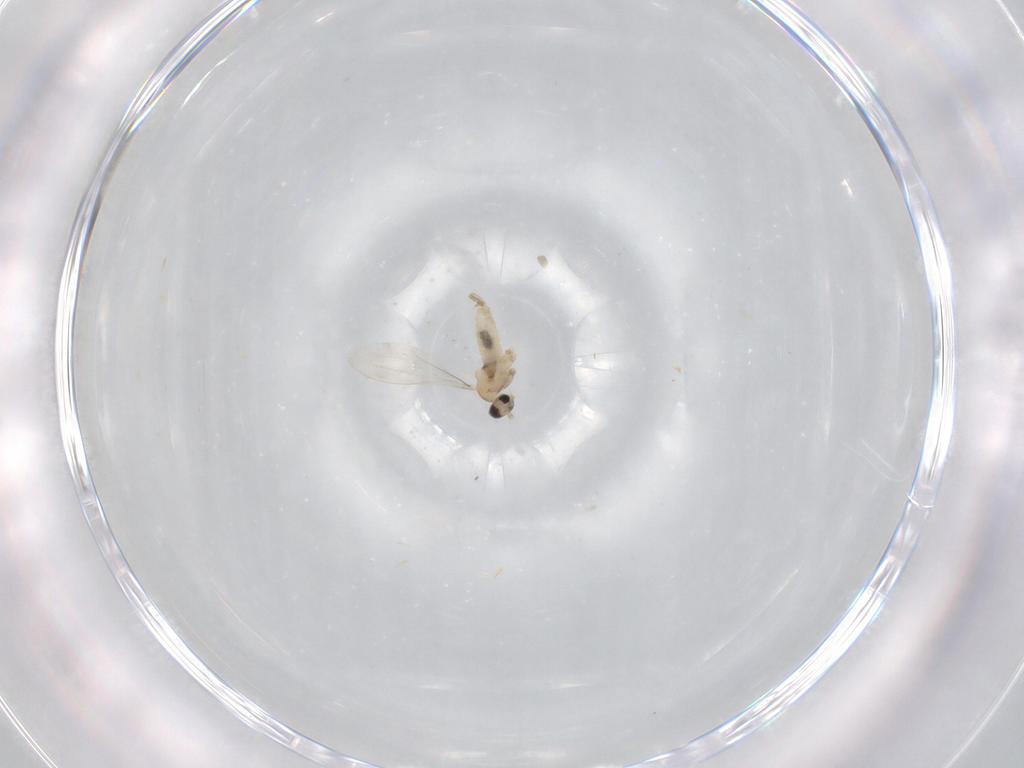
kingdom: Animalia
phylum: Arthropoda
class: Insecta
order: Diptera
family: Cecidomyiidae
